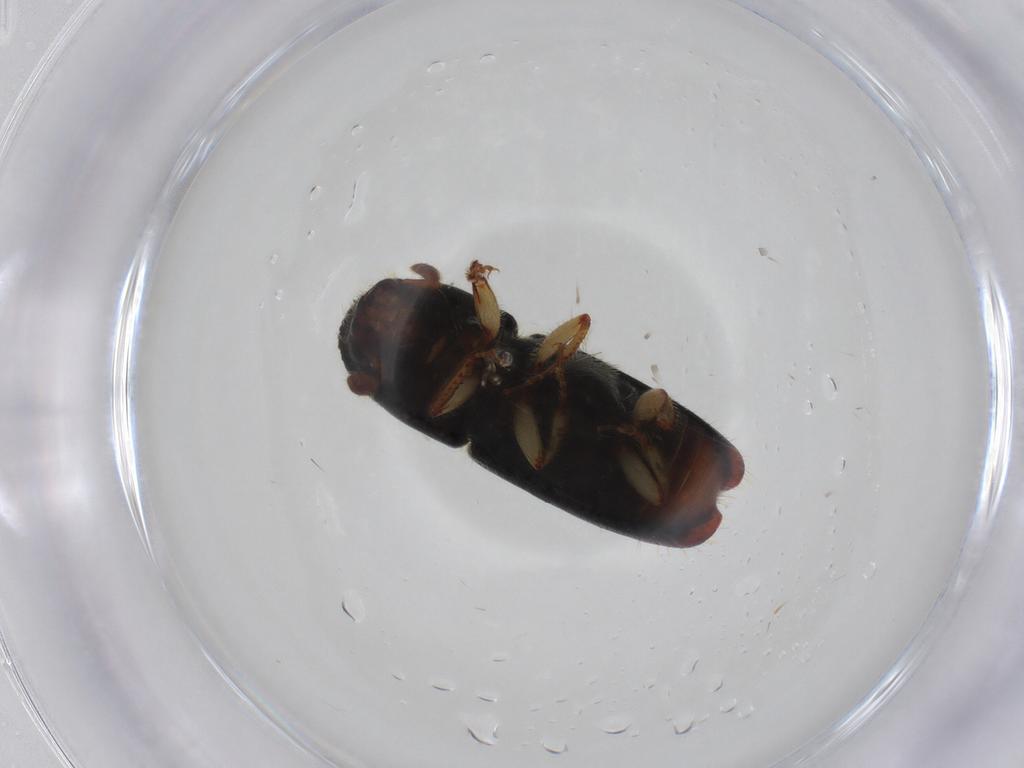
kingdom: Animalia
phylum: Arthropoda
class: Insecta
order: Coleoptera
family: Curculionidae
